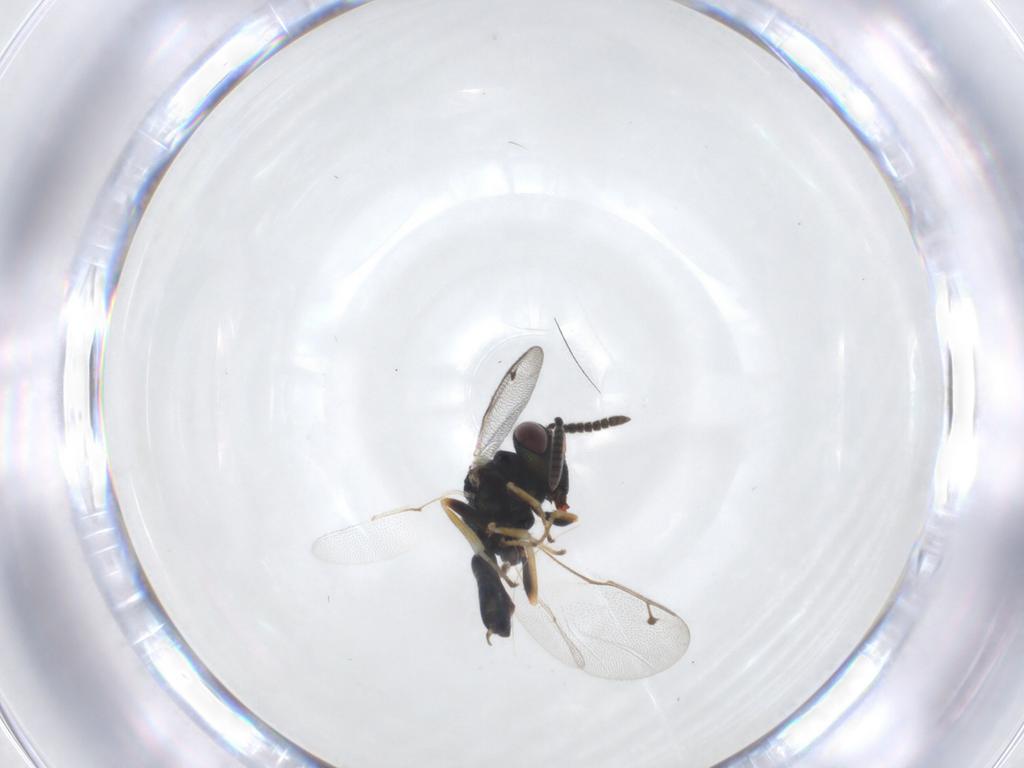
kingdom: Animalia
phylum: Arthropoda
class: Insecta
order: Hymenoptera
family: Pteromalidae
